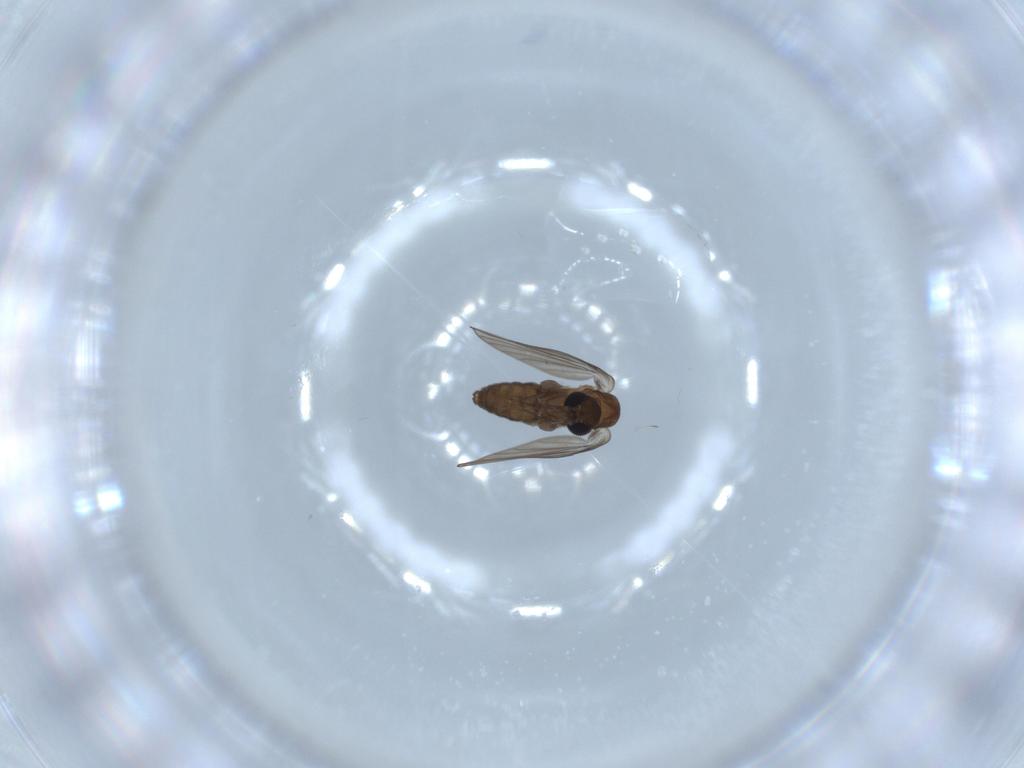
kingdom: Animalia
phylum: Arthropoda
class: Insecta
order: Diptera
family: Psychodidae
